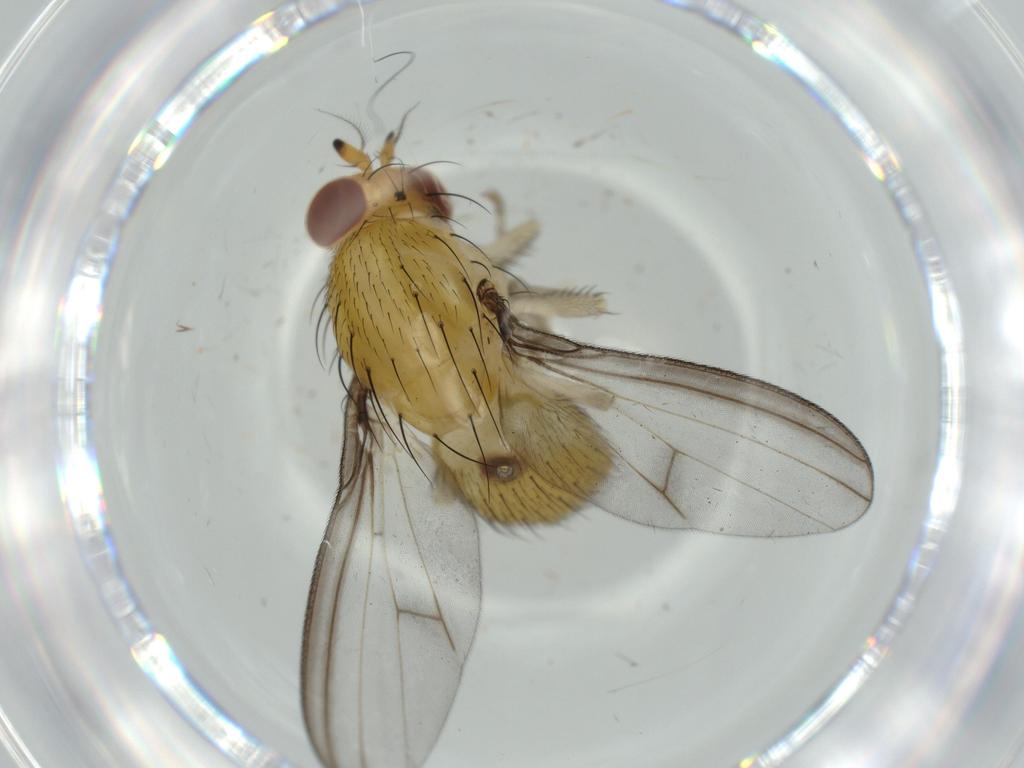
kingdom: Animalia
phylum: Arthropoda
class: Insecta
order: Diptera
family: Lauxaniidae
